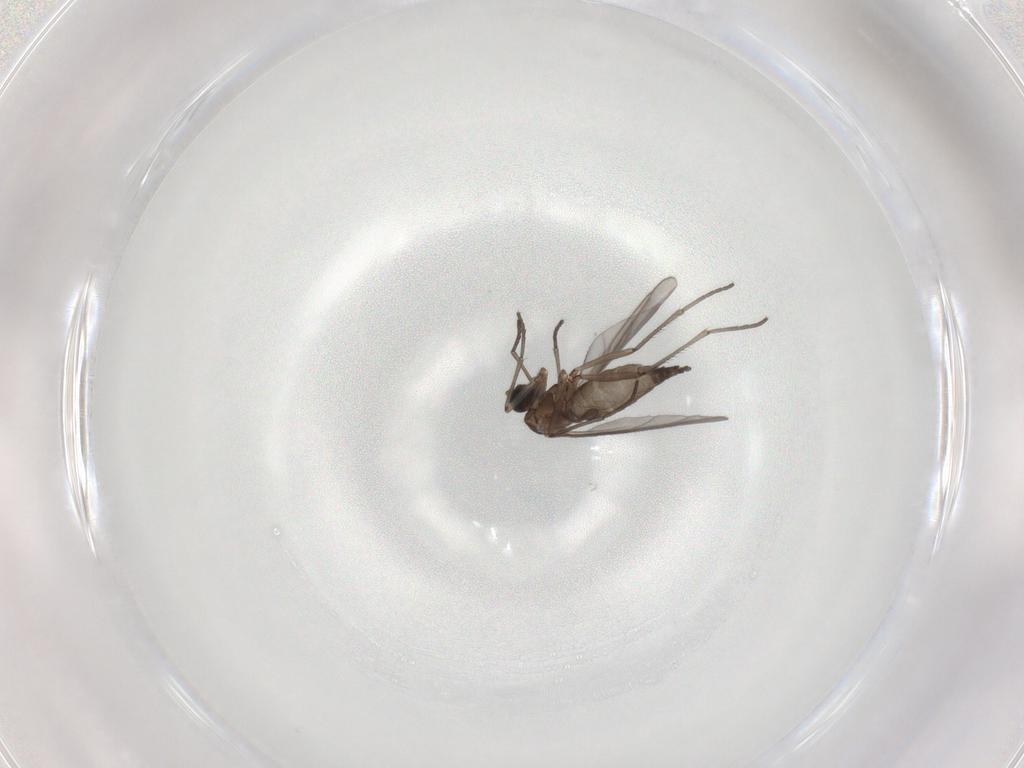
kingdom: Animalia
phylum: Arthropoda
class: Insecta
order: Diptera
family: Sciaridae
